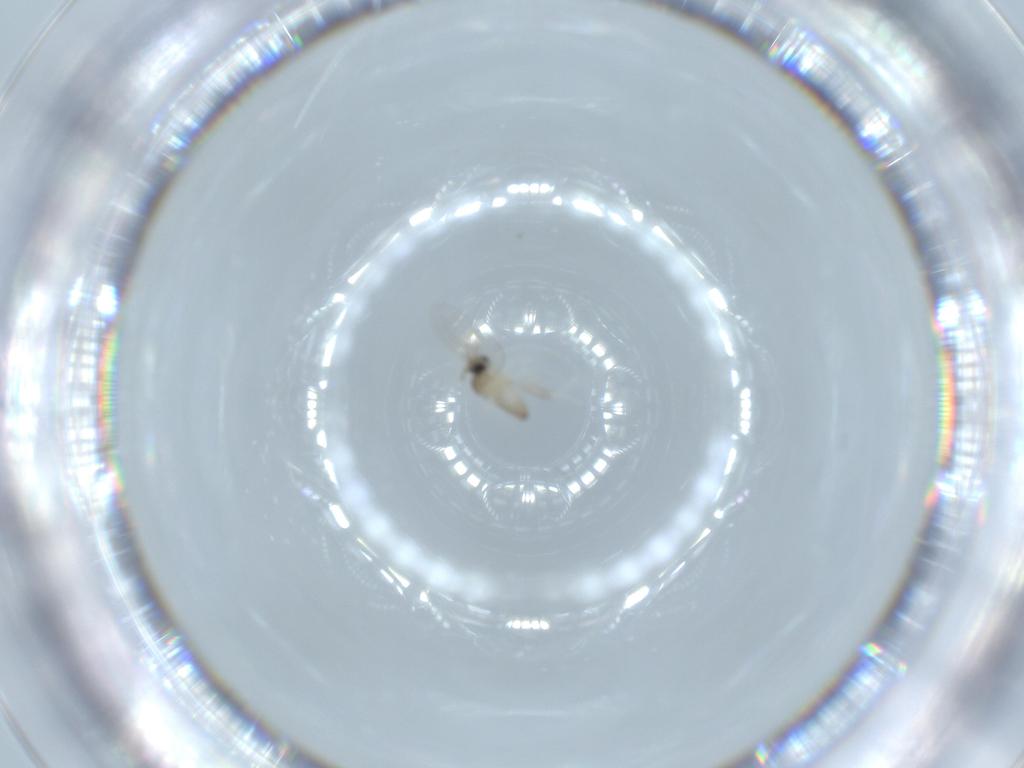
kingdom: Animalia
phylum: Arthropoda
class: Insecta
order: Diptera
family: Cecidomyiidae
